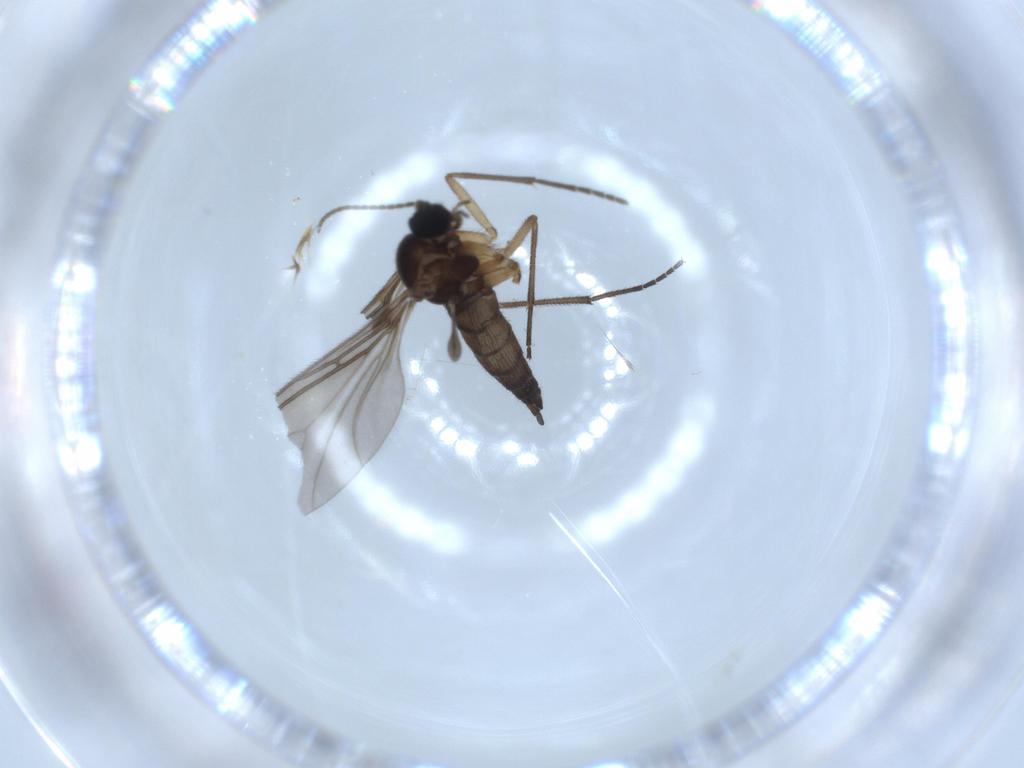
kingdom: Animalia
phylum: Arthropoda
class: Insecta
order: Diptera
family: Sciaridae
